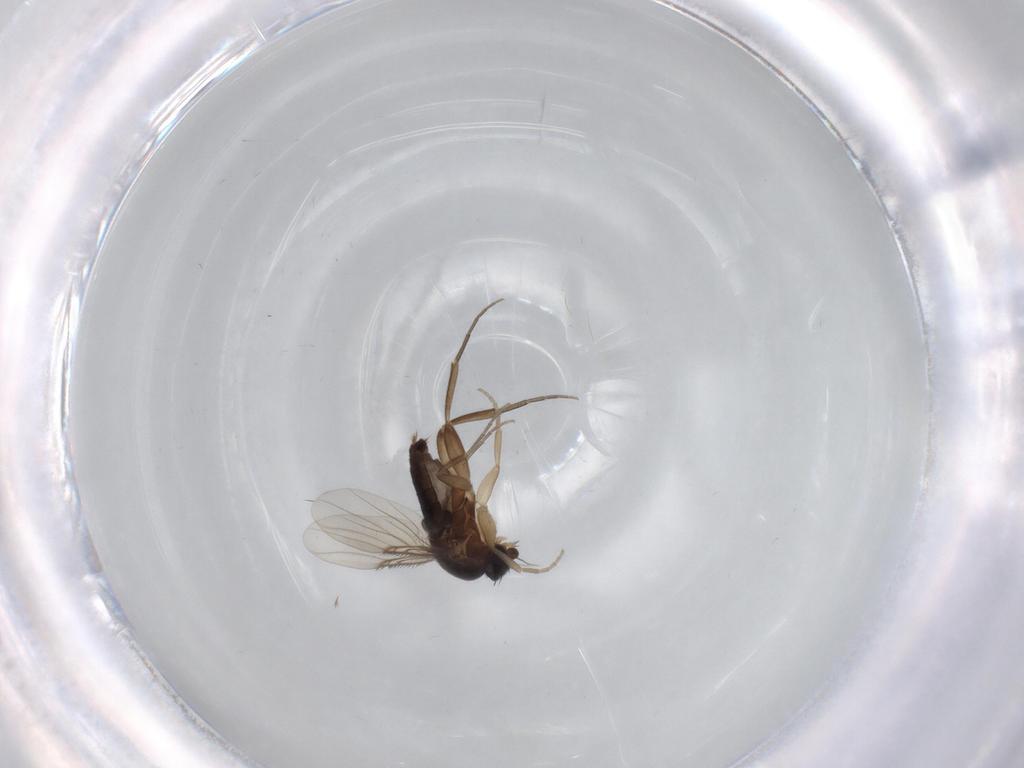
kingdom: Animalia
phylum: Arthropoda
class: Insecta
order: Diptera
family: Phoridae
